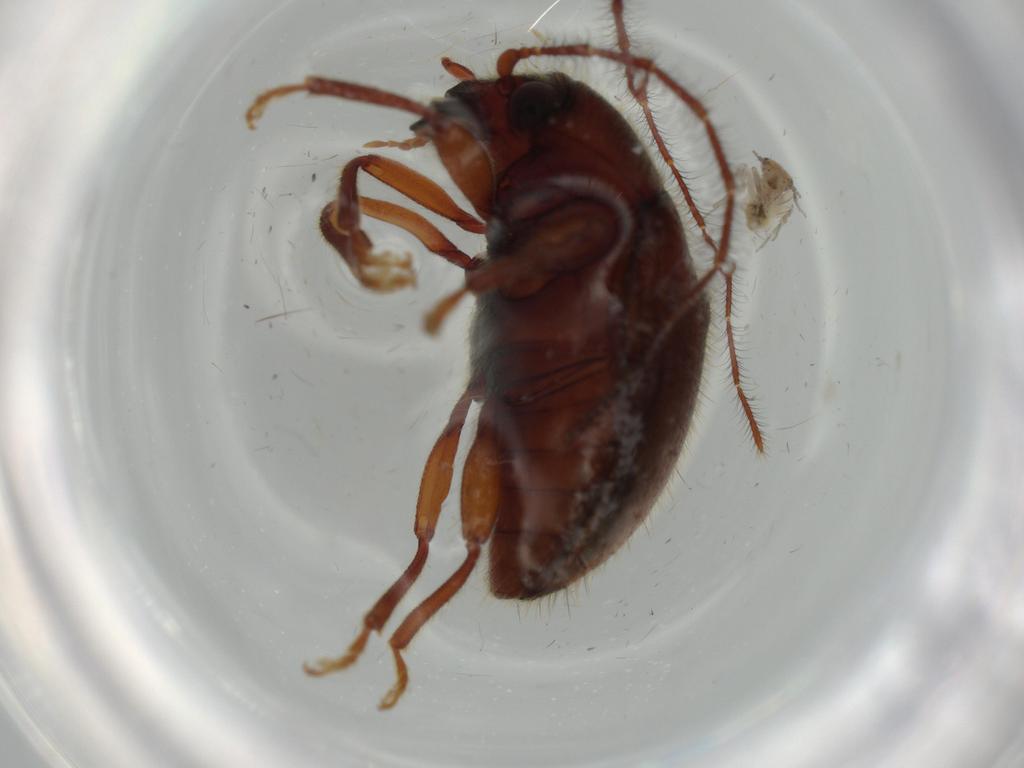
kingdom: Animalia
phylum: Arthropoda
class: Insecta
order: Coleoptera
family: Artematopodidae
